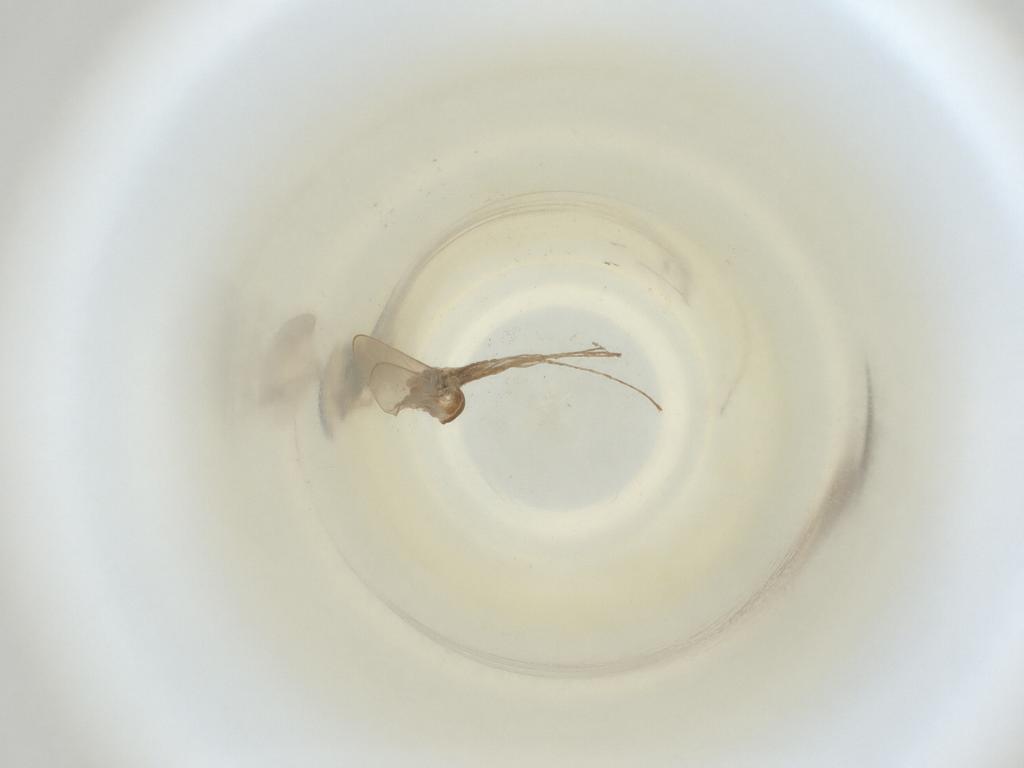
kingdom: Animalia
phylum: Arthropoda
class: Insecta
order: Diptera
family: Cecidomyiidae
